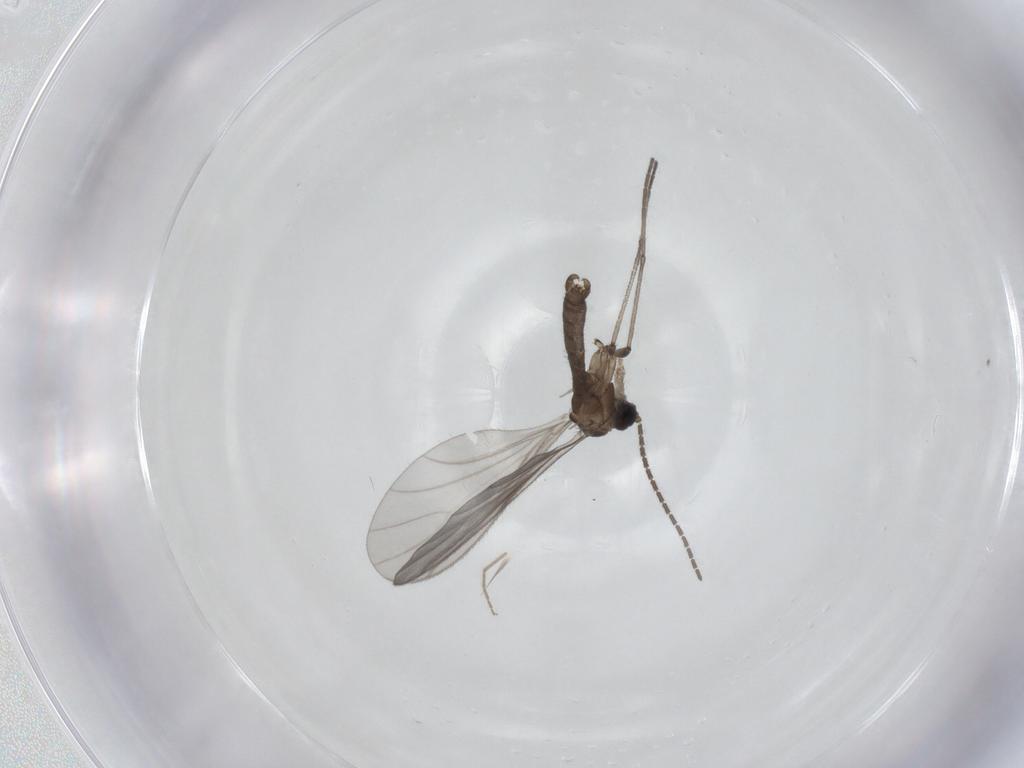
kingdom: Animalia
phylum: Arthropoda
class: Insecta
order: Diptera
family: Sciaridae
